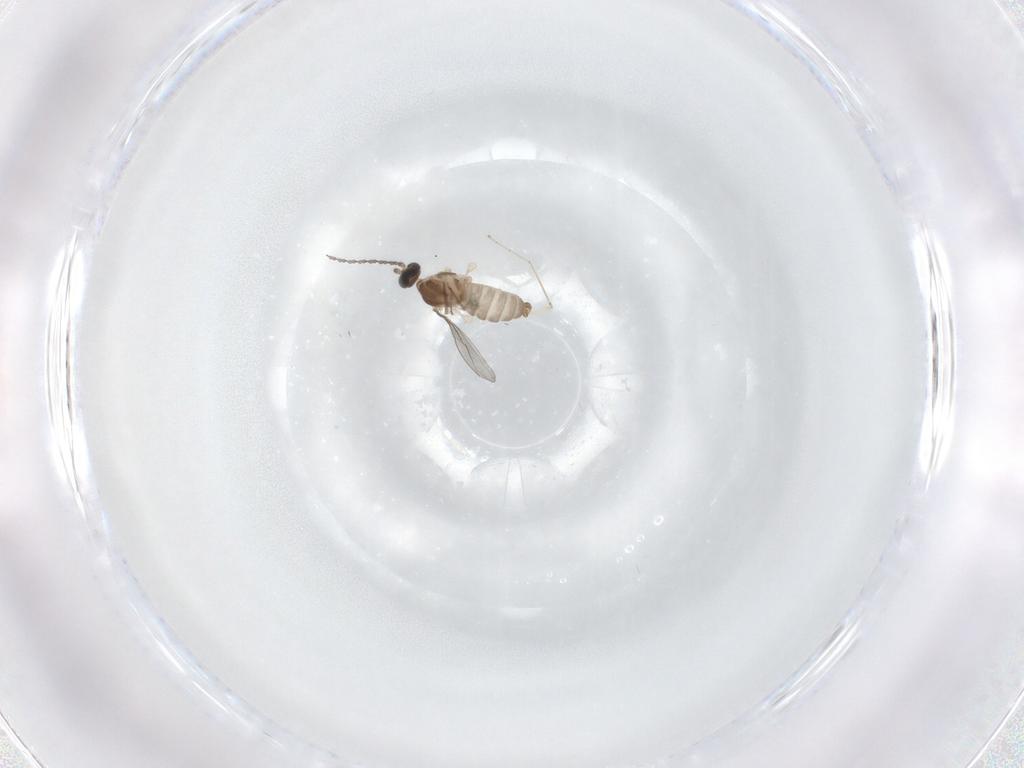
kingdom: Animalia
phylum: Arthropoda
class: Insecta
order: Diptera
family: Cecidomyiidae
